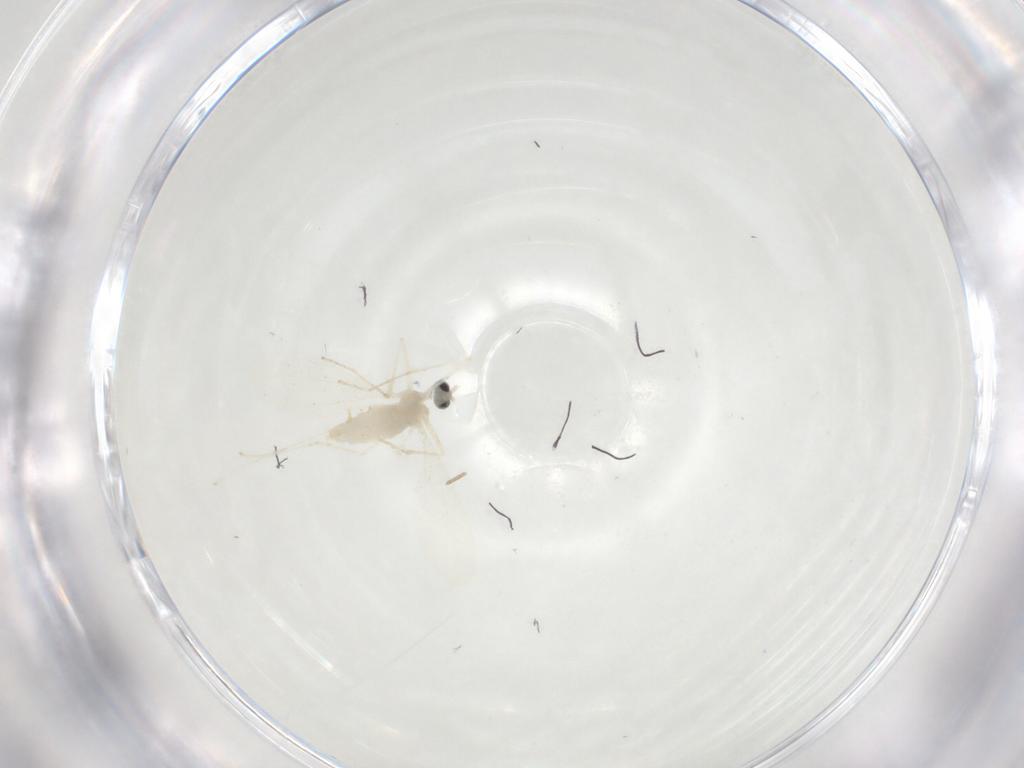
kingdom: Animalia
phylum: Arthropoda
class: Insecta
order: Diptera
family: Cecidomyiidae
